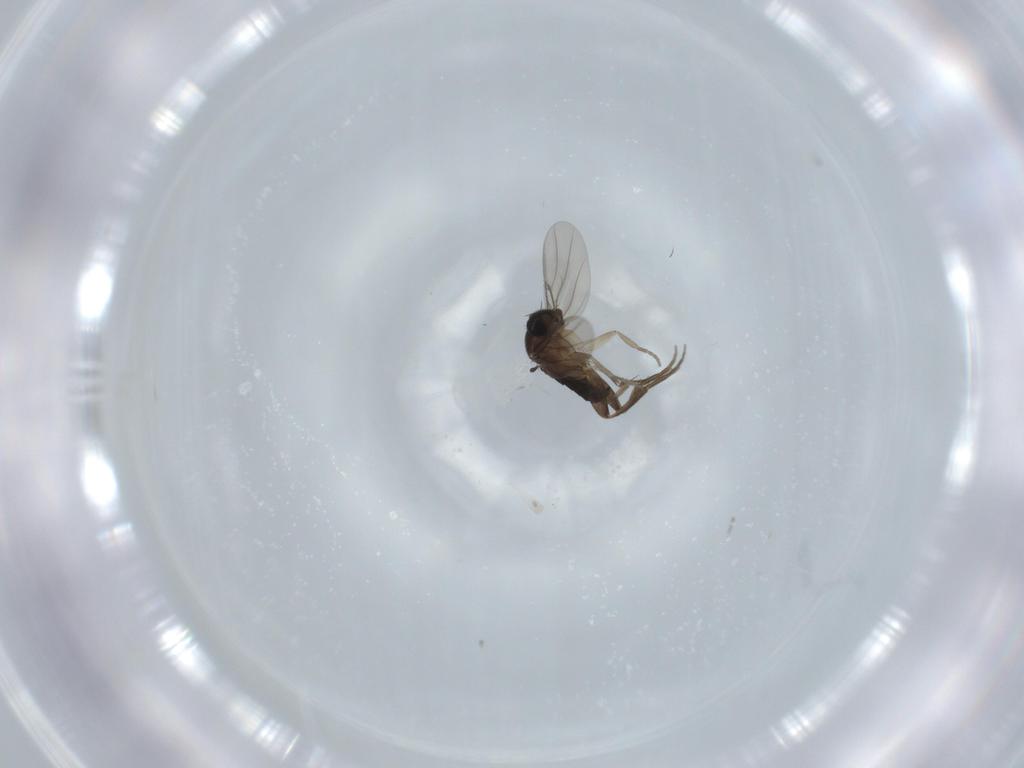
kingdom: Animalia
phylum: Arthropoda
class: Insecta
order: Diptera
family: Phoridae
